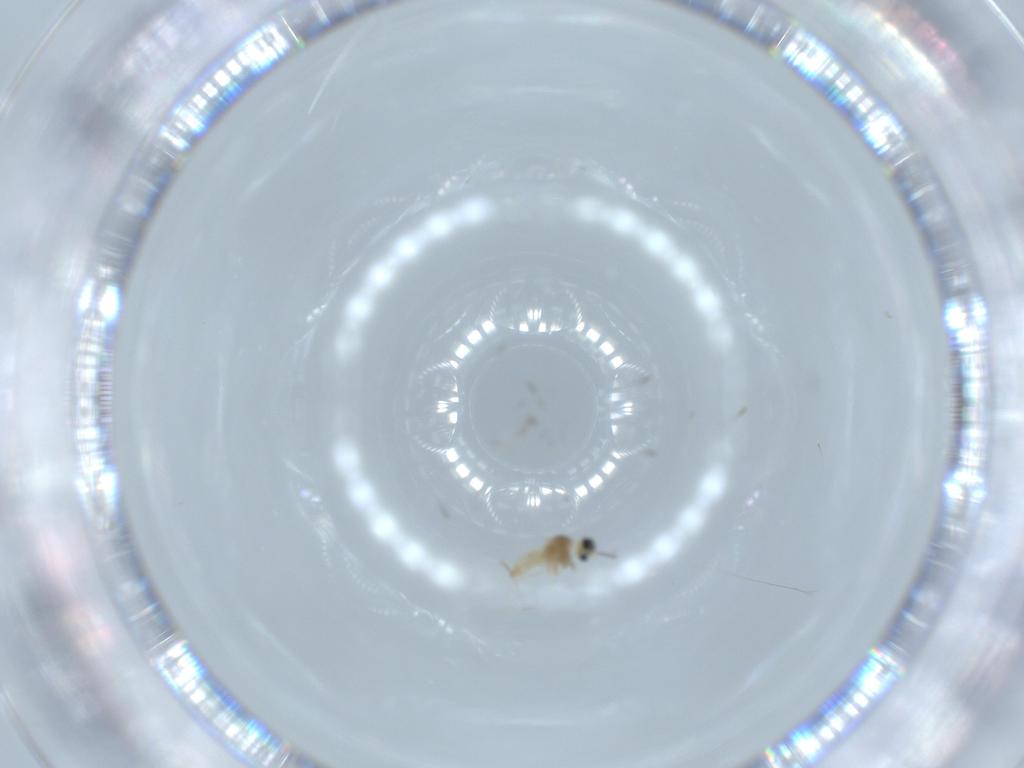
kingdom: Animalia
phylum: Arthropoda
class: Insecta
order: Diptera
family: Cecidomyiidae
